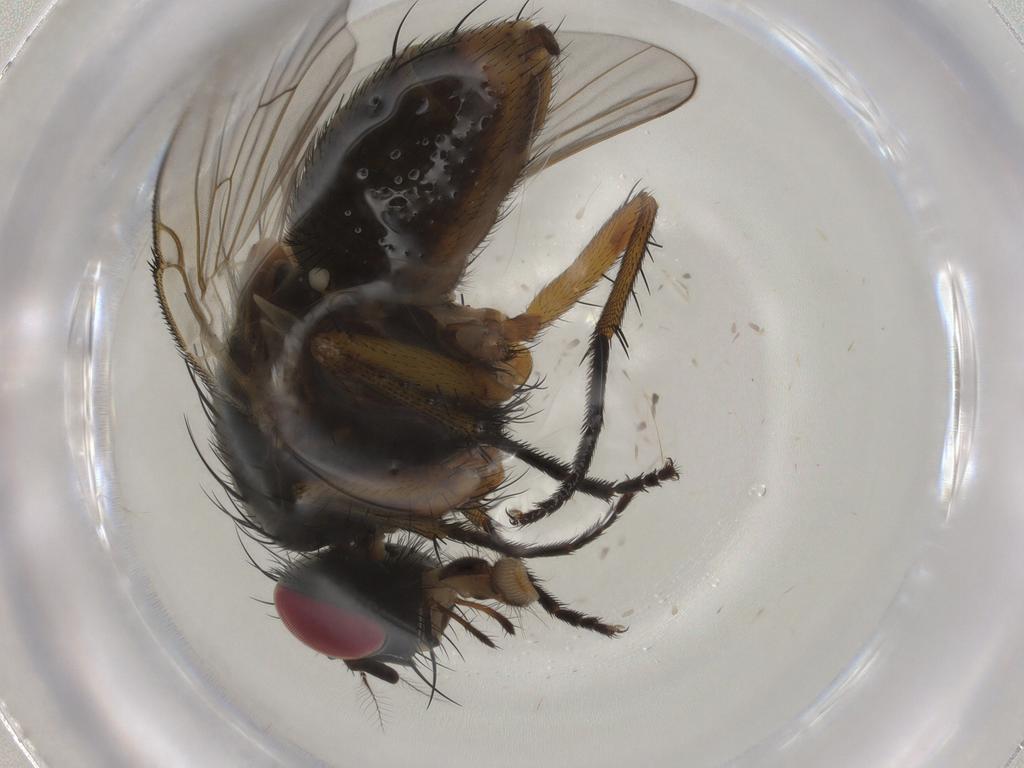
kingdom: Animalia
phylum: Arthropoda
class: Insecta
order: Diptera
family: Muscidae
